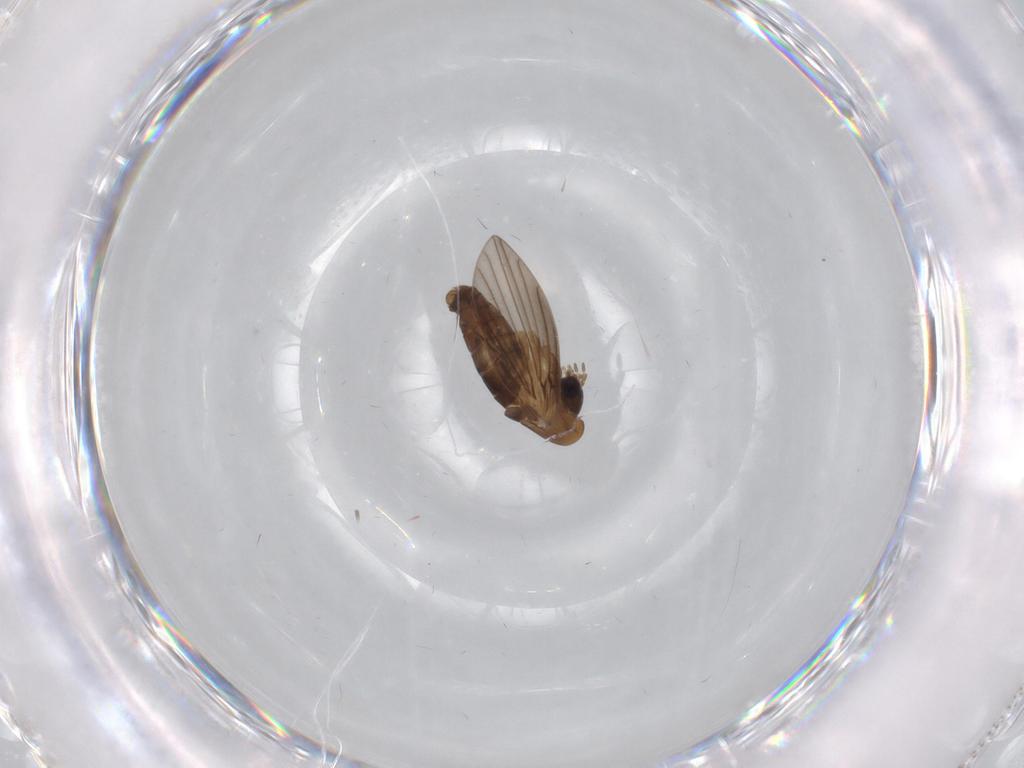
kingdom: Animalia
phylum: Arthropoda
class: Insecta
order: Diptera
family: Psychodidae
